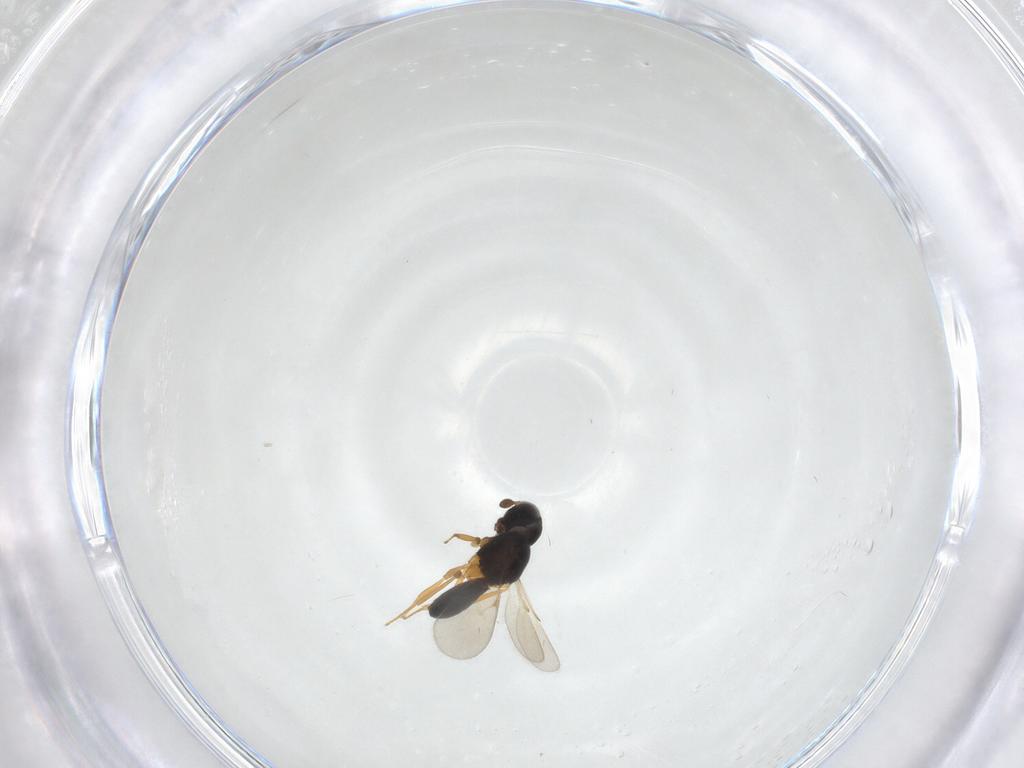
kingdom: Animalia
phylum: Arthropoda
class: Insecta
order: Hymenoptera
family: Scelionidae
